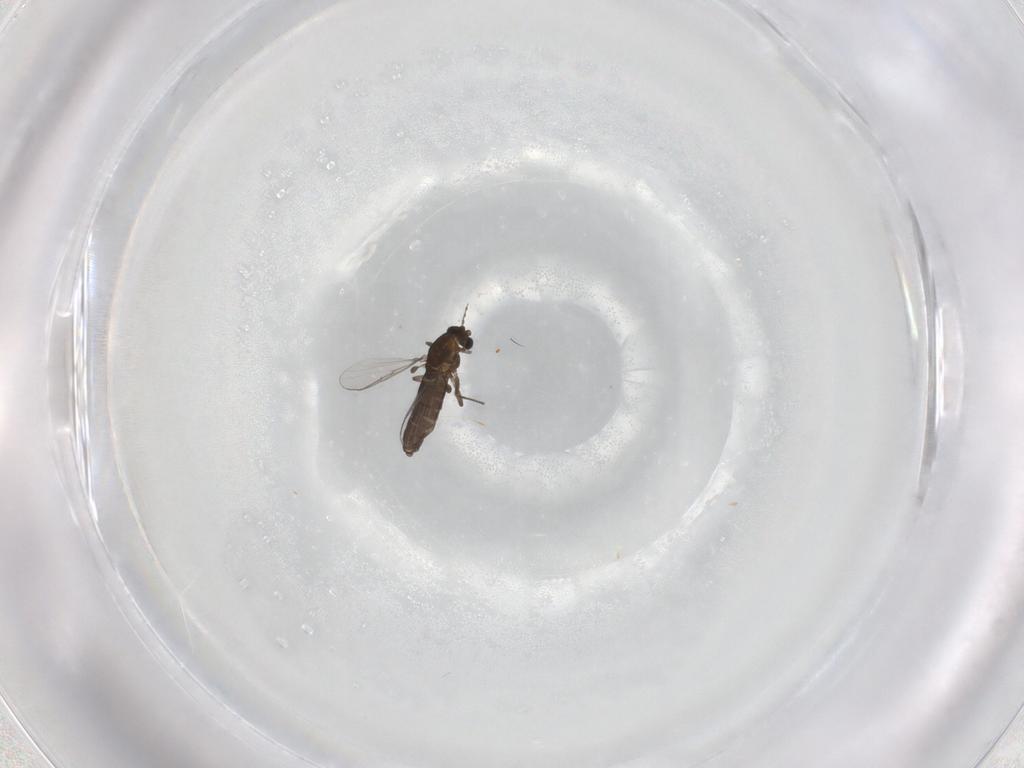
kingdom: Animalia
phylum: Arthropoda
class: Insecta
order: Diptera
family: Chironomidae
